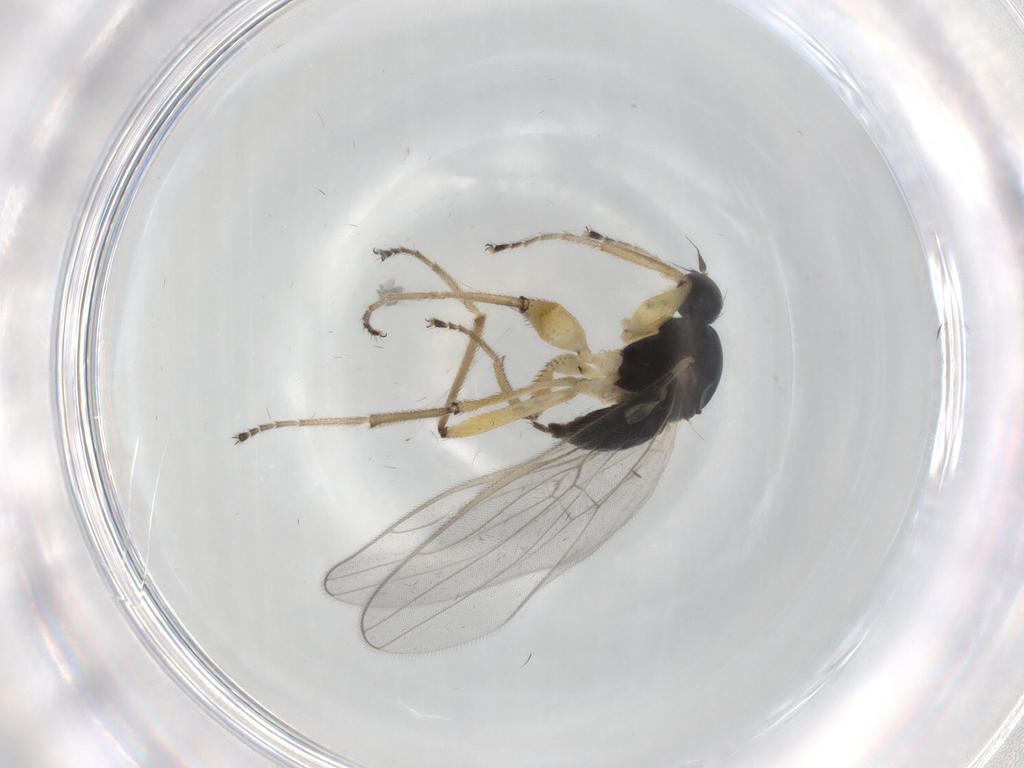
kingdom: Animalia
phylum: Arthropoda
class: Insecta
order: Diptera
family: Hybotidae
